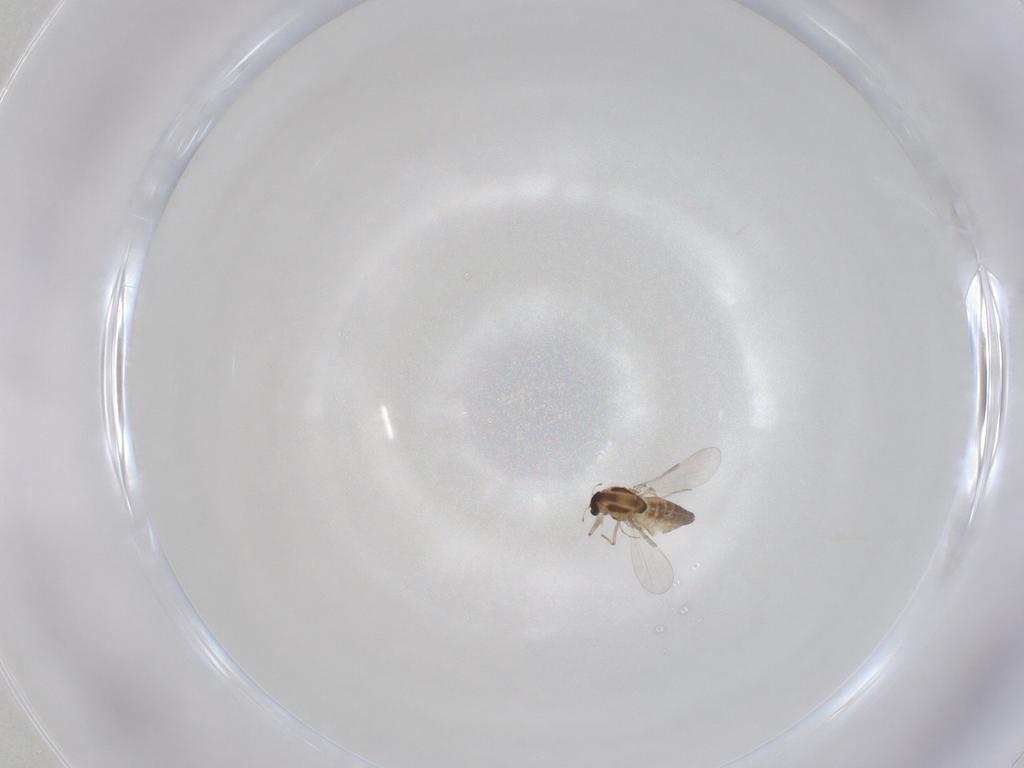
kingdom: Animalia
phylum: Arthropoda
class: Insecta
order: Diptera
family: Chironomidae
